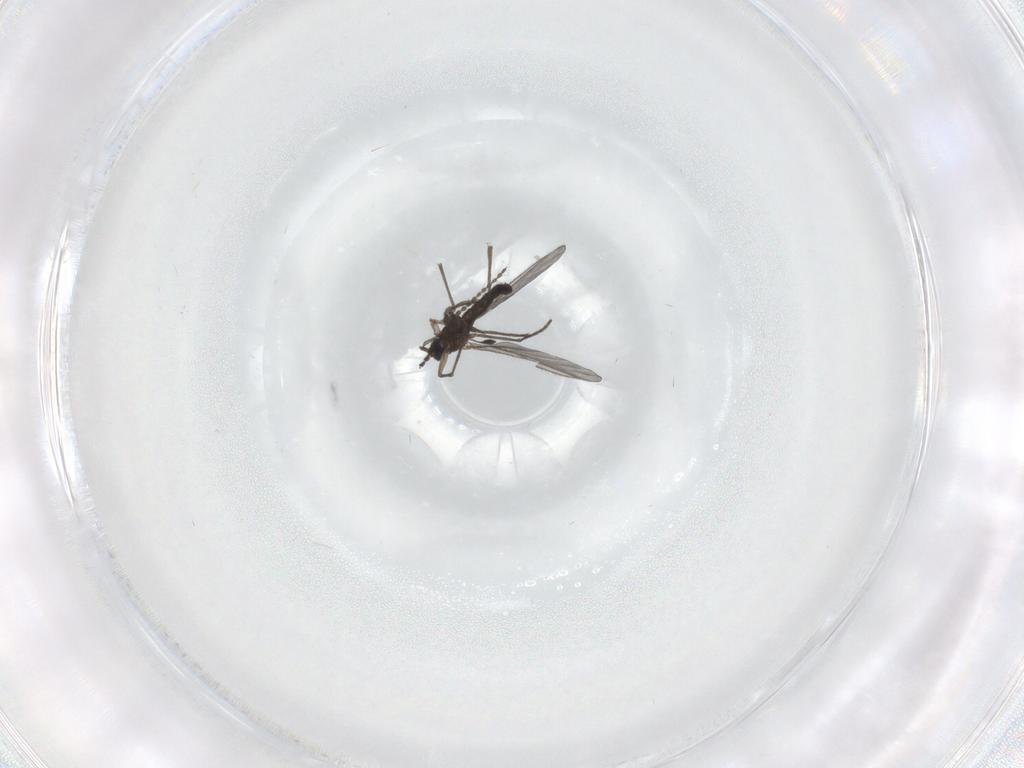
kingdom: Animalia
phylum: Arthropoda
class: Insecta
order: Diptera
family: Limoniidae
